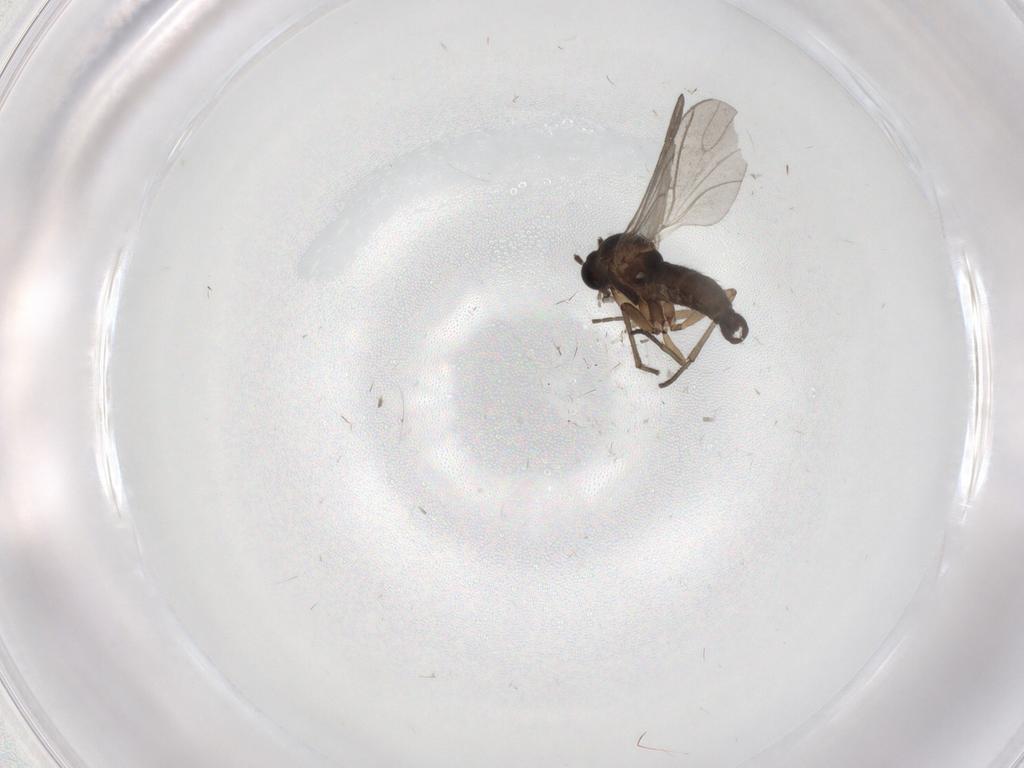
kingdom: Animalia
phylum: Arthropoda
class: Insecta
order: Diptera
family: Sciaridae
